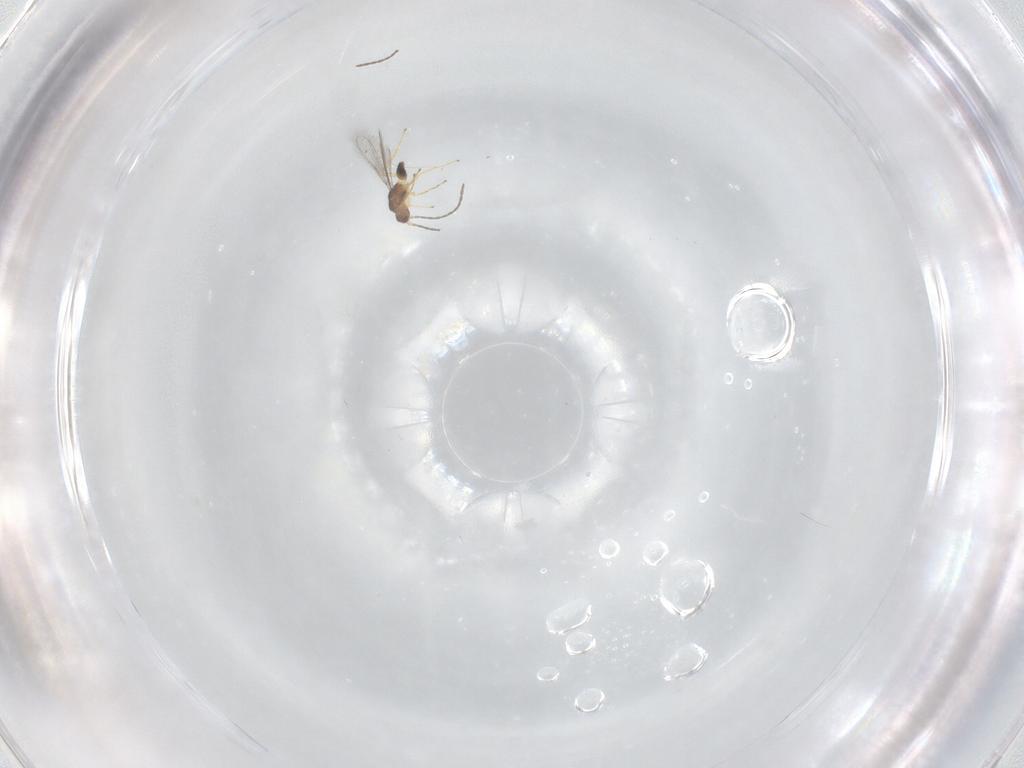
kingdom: Animalia
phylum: Arthropoda
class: Insecta
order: Hymenoptera
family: Mymaridae
